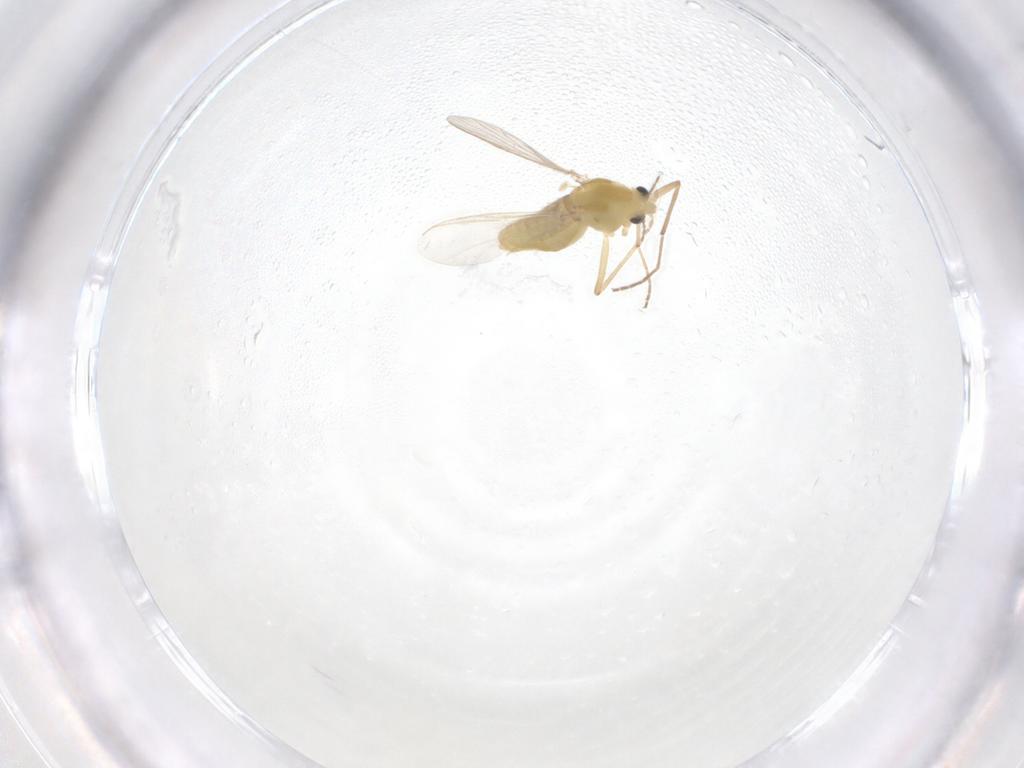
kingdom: Animalia
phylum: Arthropoda
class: Insecta
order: Diptera
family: Chironomidae
